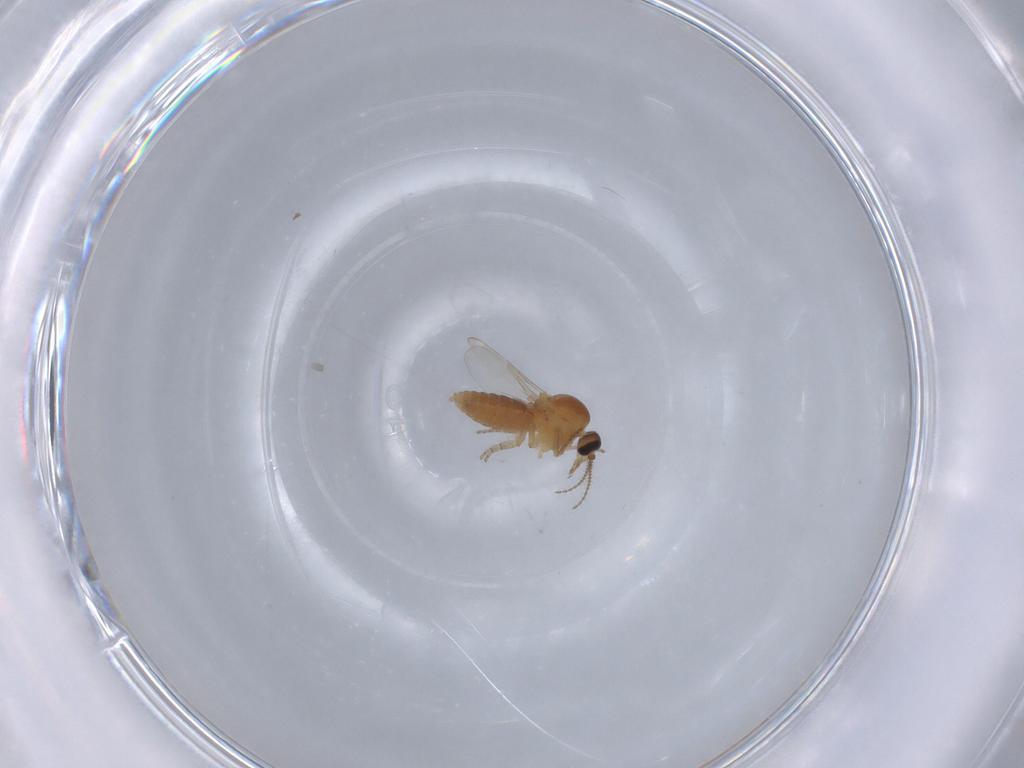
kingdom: Animalia
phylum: Arthropoda
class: Insecta
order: Diptera
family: Ceratopogonidae
